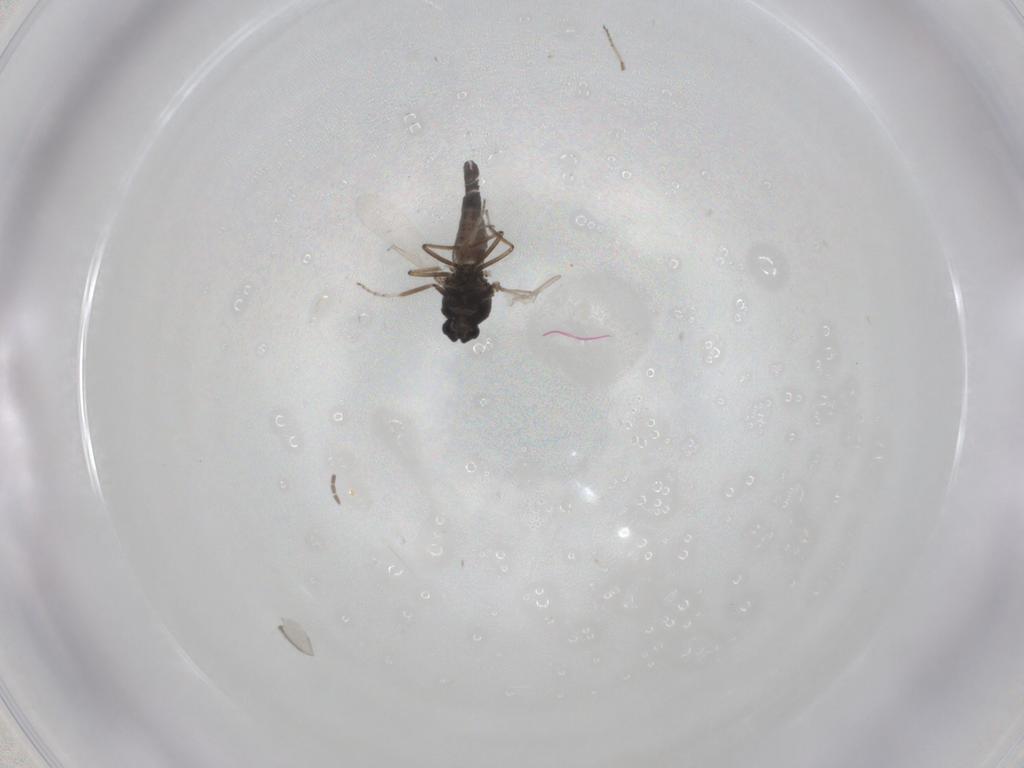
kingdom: Animalia
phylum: Arthropoda
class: Insecta
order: Diptera
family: Ceratopogonidae
